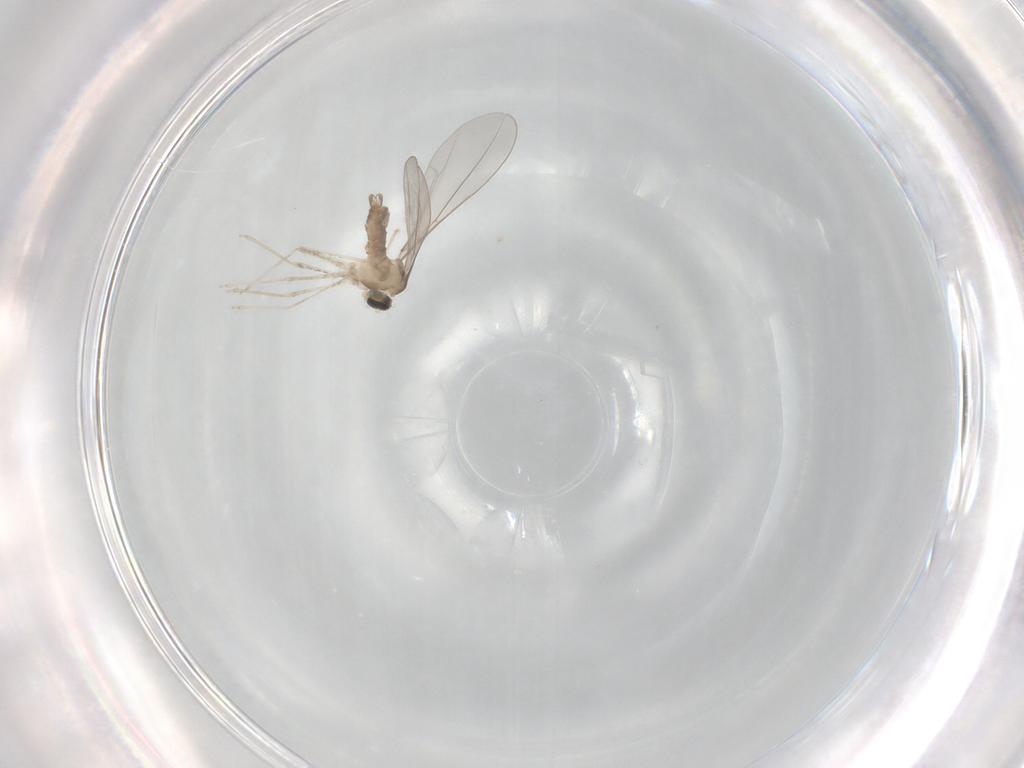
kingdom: Animalia
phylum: Arthropoda
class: Insecta
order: Diptera
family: Cecidomyiidae
